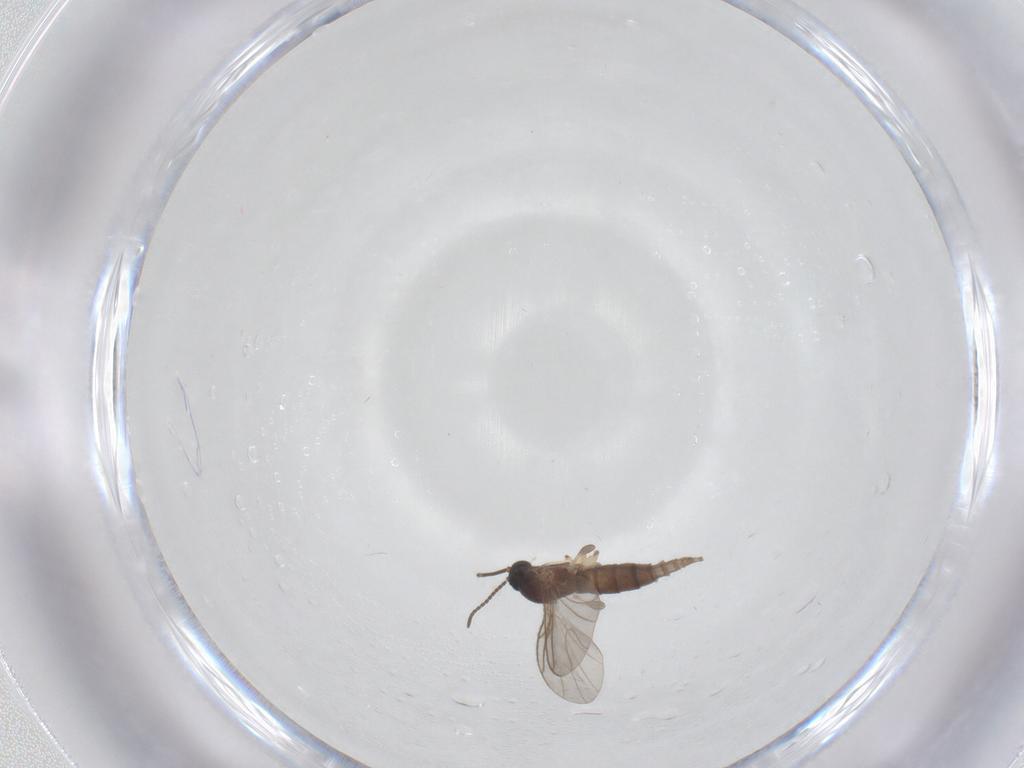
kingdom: Animalia
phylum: Arthropoda
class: Insecta
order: Diptera
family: Sciaridae
